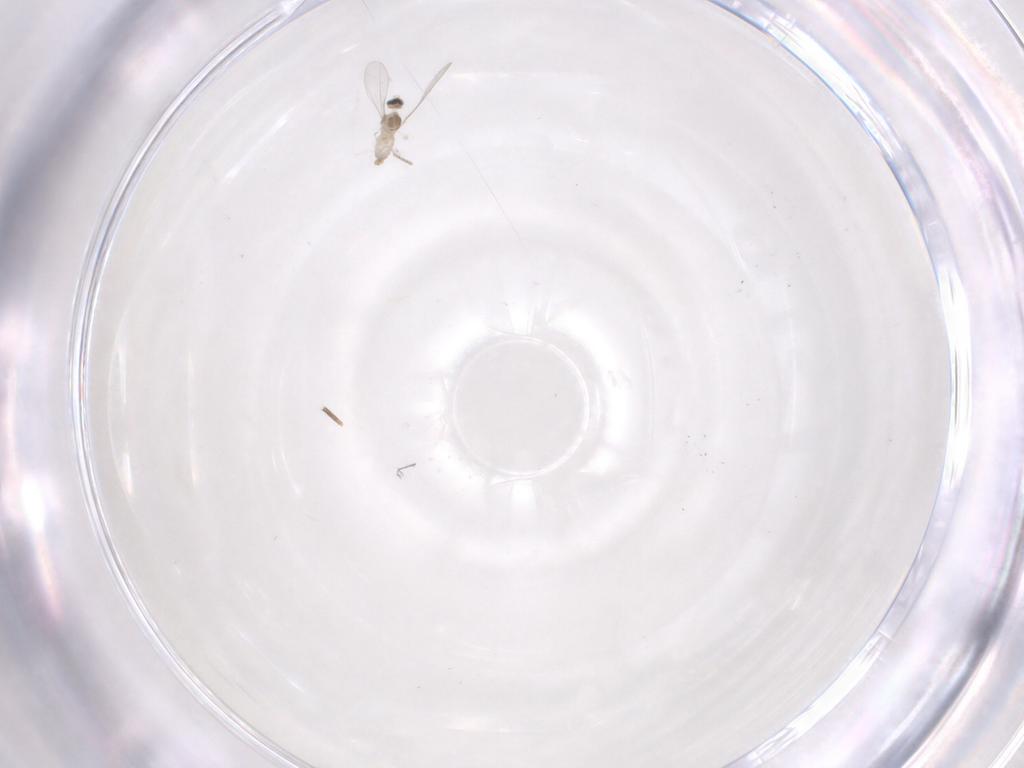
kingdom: Animalia
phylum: Arthropoda
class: Insecta
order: Diptera
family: Cecidomyiidae
